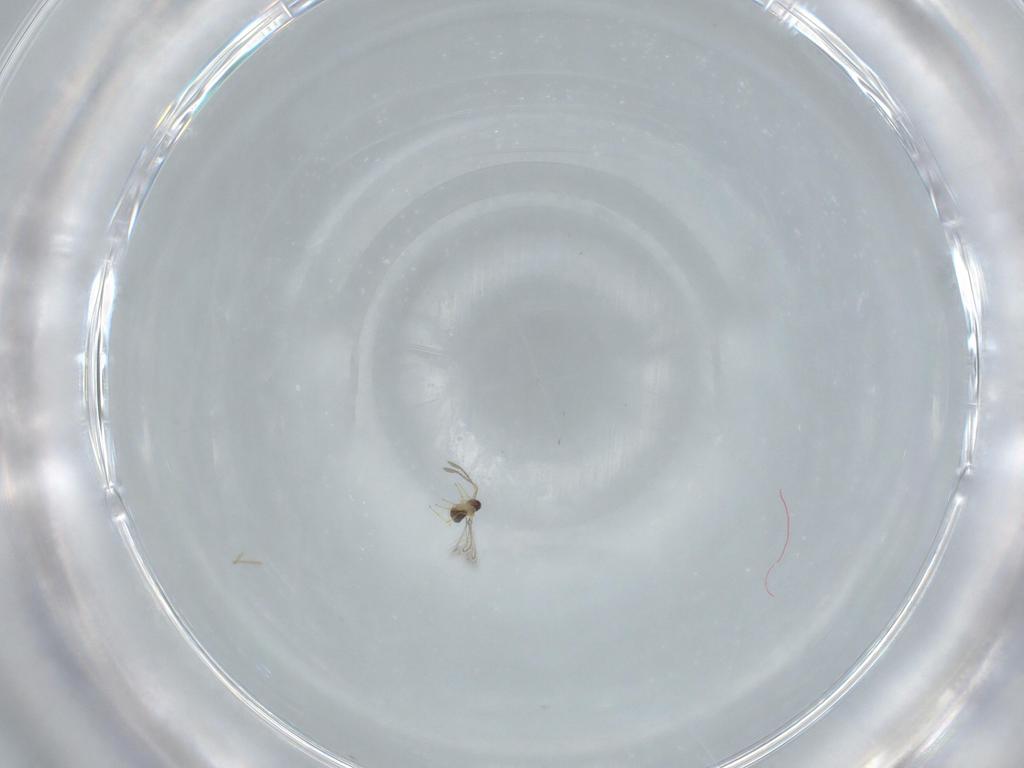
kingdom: Animalia
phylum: Arthropoda
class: Insecta
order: Hymenoptera
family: Mymaridae
